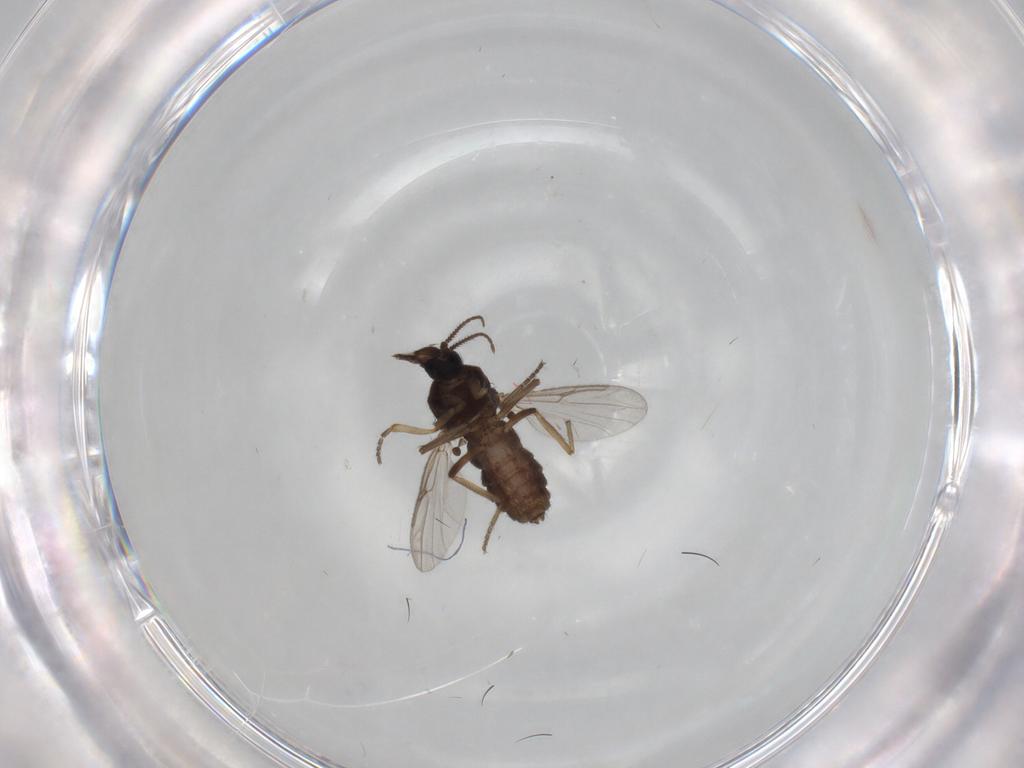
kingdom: Animalia
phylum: Arthropoda
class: Insecta
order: Diptera
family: Ceratopogonidae
